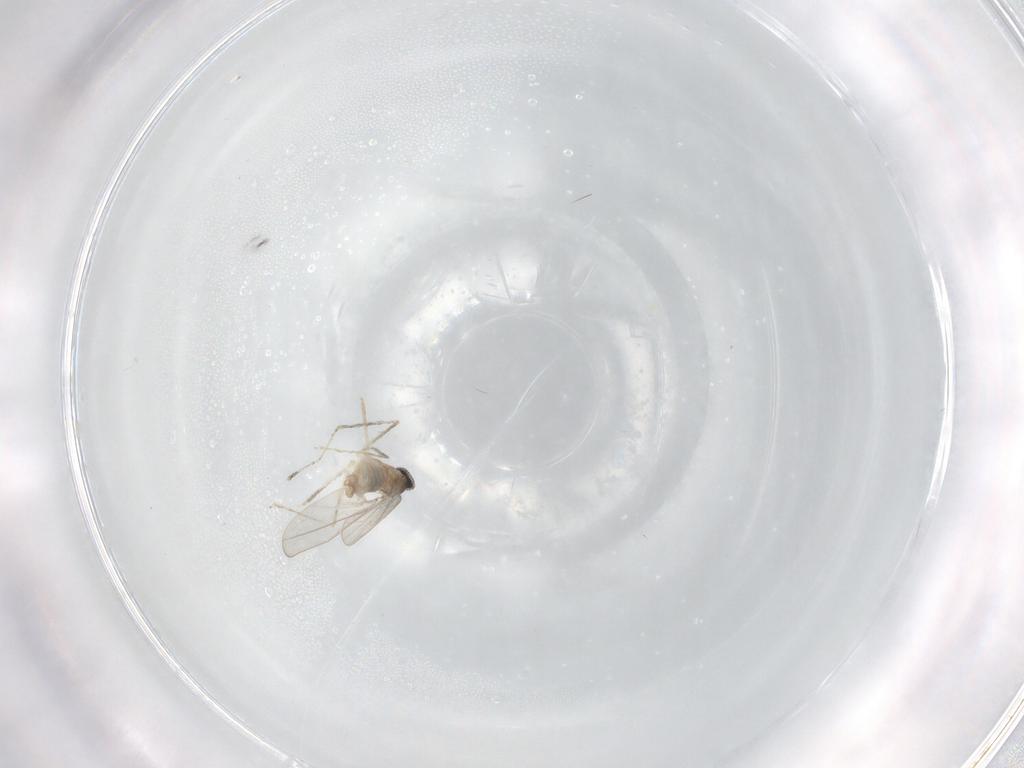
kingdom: Animalia
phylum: Arthropoda
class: Insecta
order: Diptera
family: Cecidomyiidae
